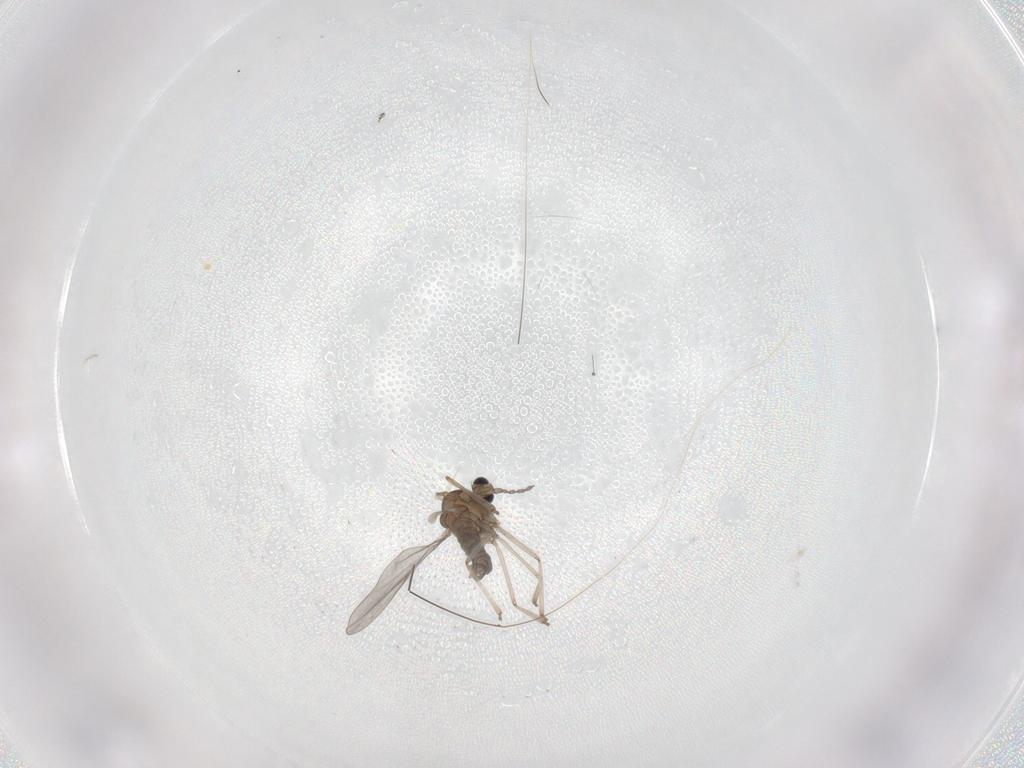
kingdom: Animalia
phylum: Arthropoda
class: Insecta
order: Diptera
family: Cecidomyiidae
